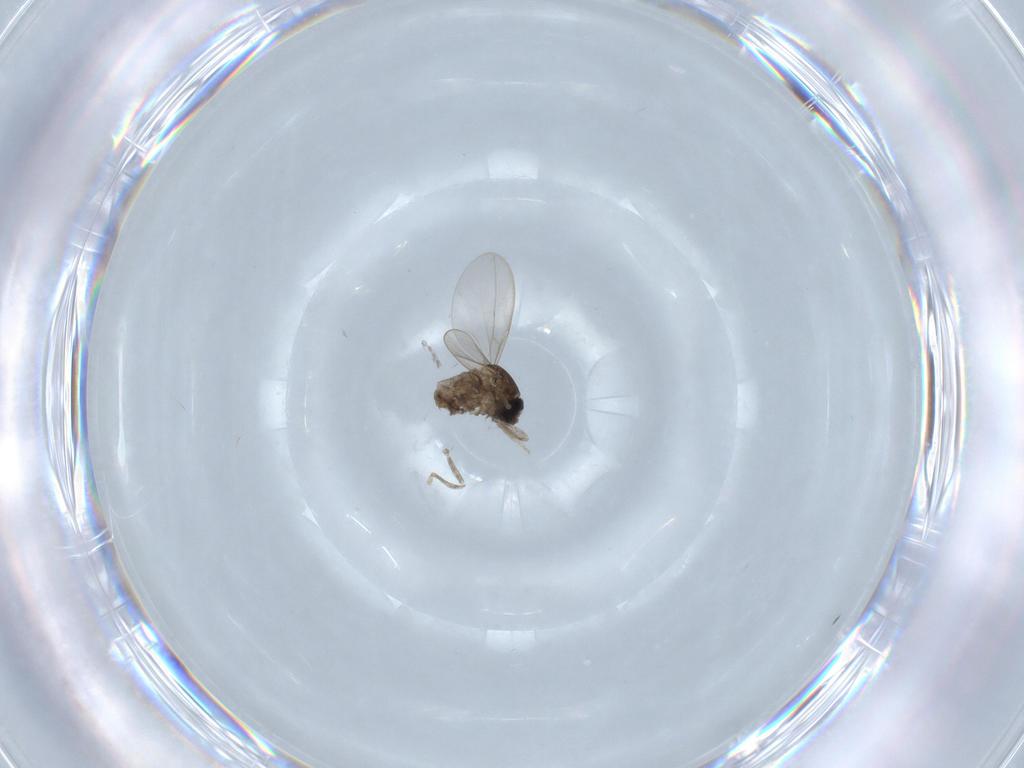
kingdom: Animalia
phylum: Arthropoda
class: Insecta
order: Diptera
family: Cecidomyiidae
